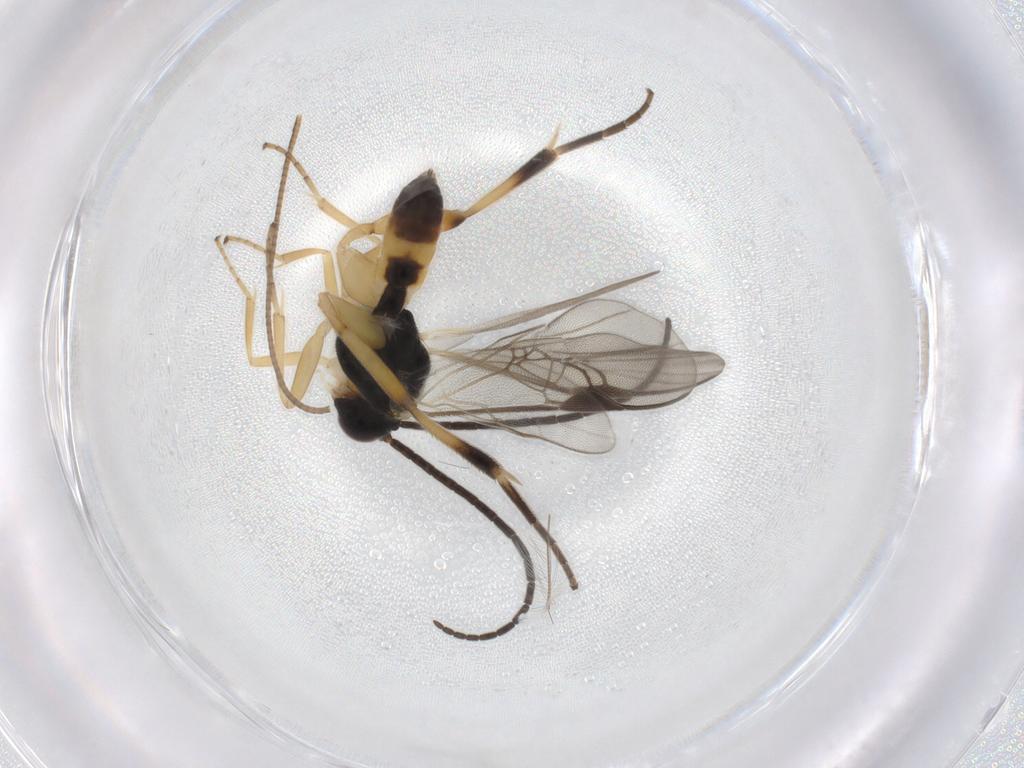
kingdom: Animalia
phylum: Arthropoda
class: Insecta
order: Hymenoptera
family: Braconidae
